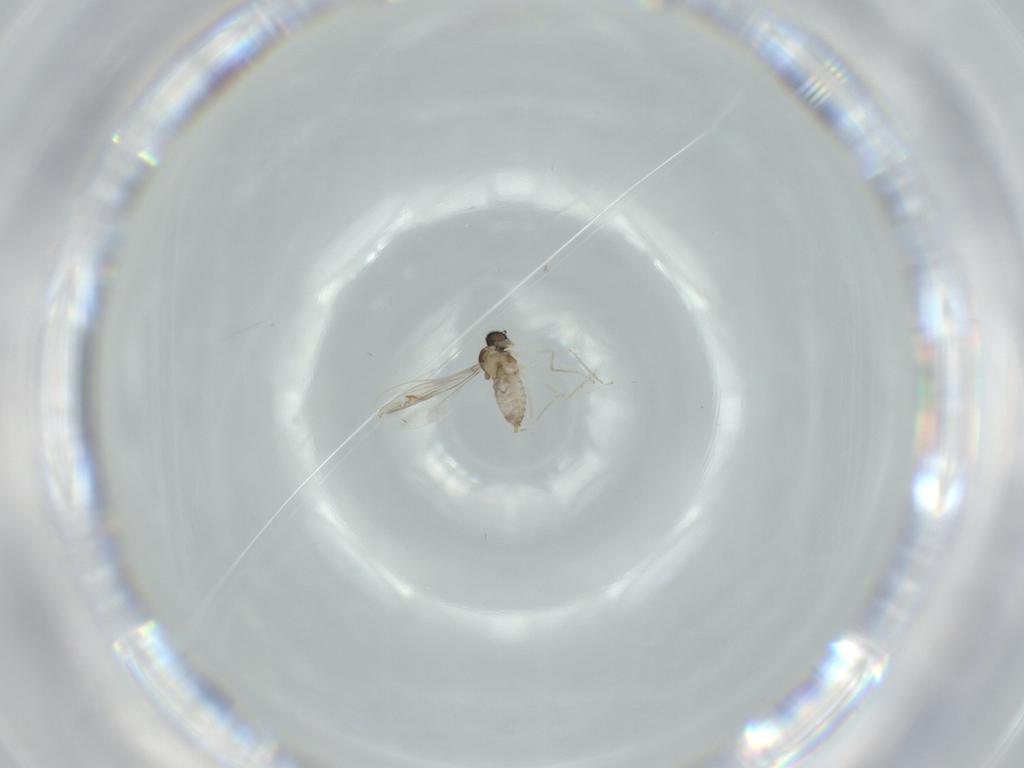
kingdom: Animalia
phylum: Arthropoda
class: Insecta
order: Diptera
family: Cecidomyiidae
